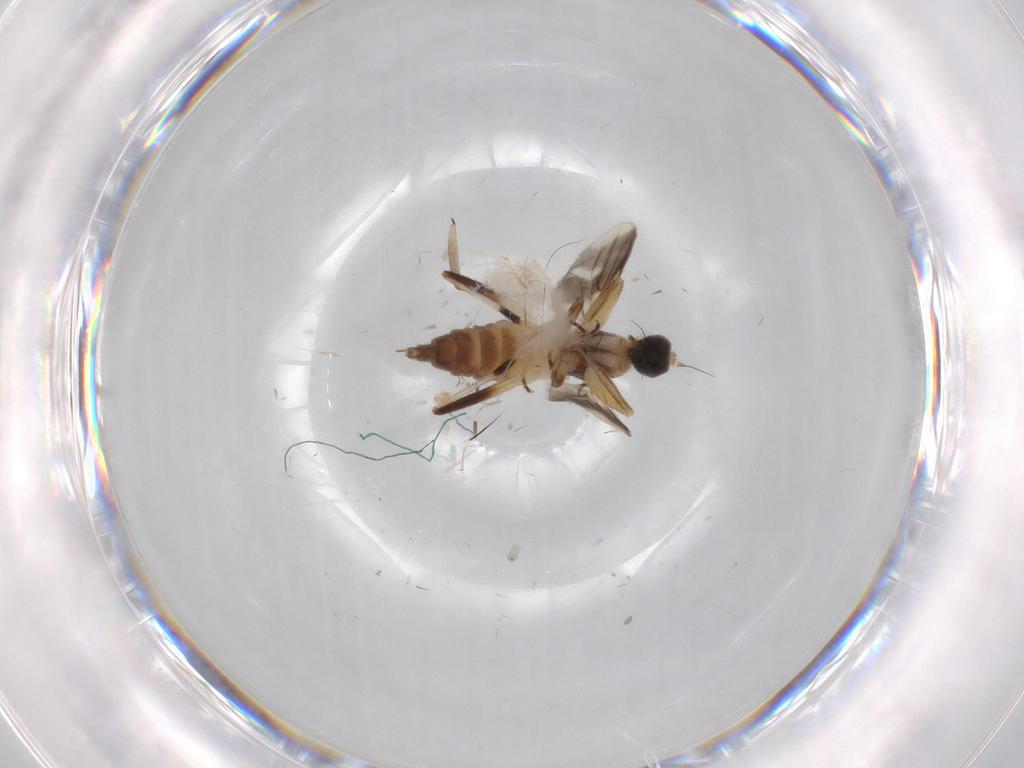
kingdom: Animalia
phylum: Arthropoda
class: Insecta
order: Diptera
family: Hybotidae
